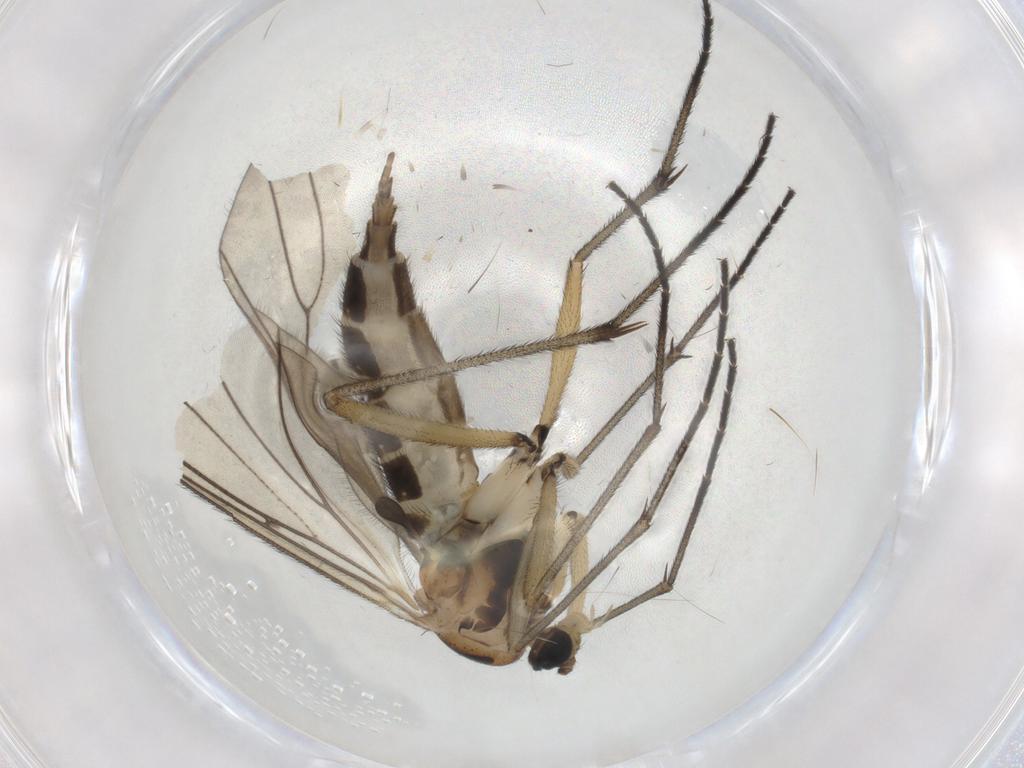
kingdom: Animalia
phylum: Arthropoda
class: Insecta
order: Diptera
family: Sciaridae
